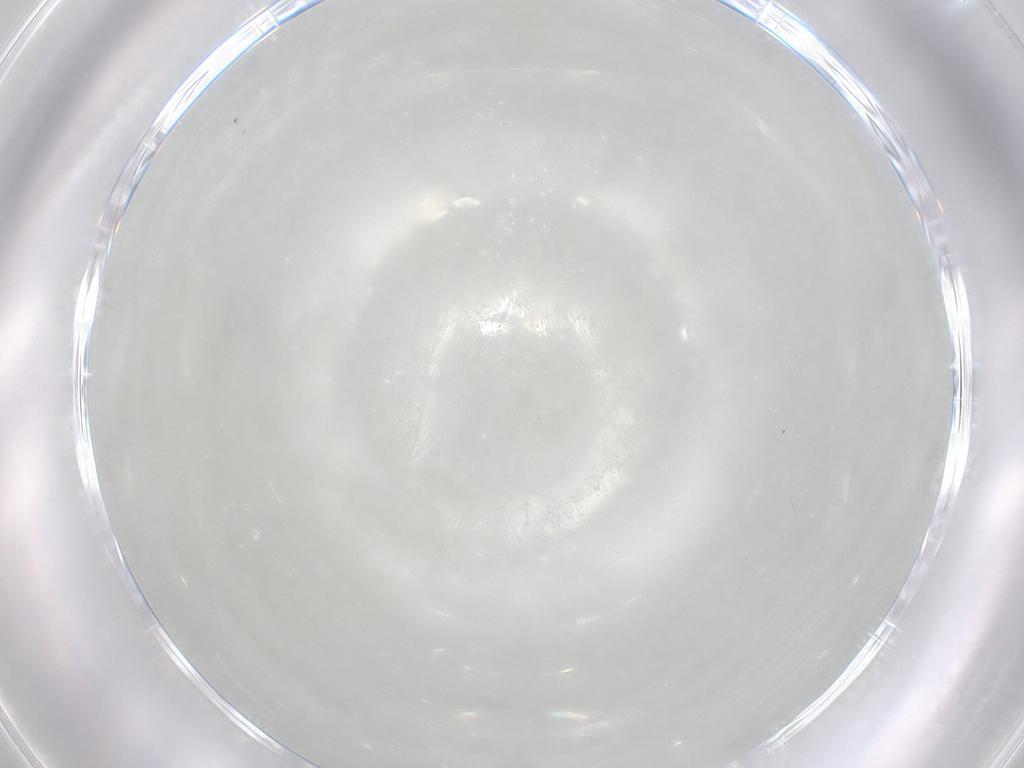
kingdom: Animalia
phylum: Arthropoda
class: Insecta
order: Diptera
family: Cecidomyiidae
